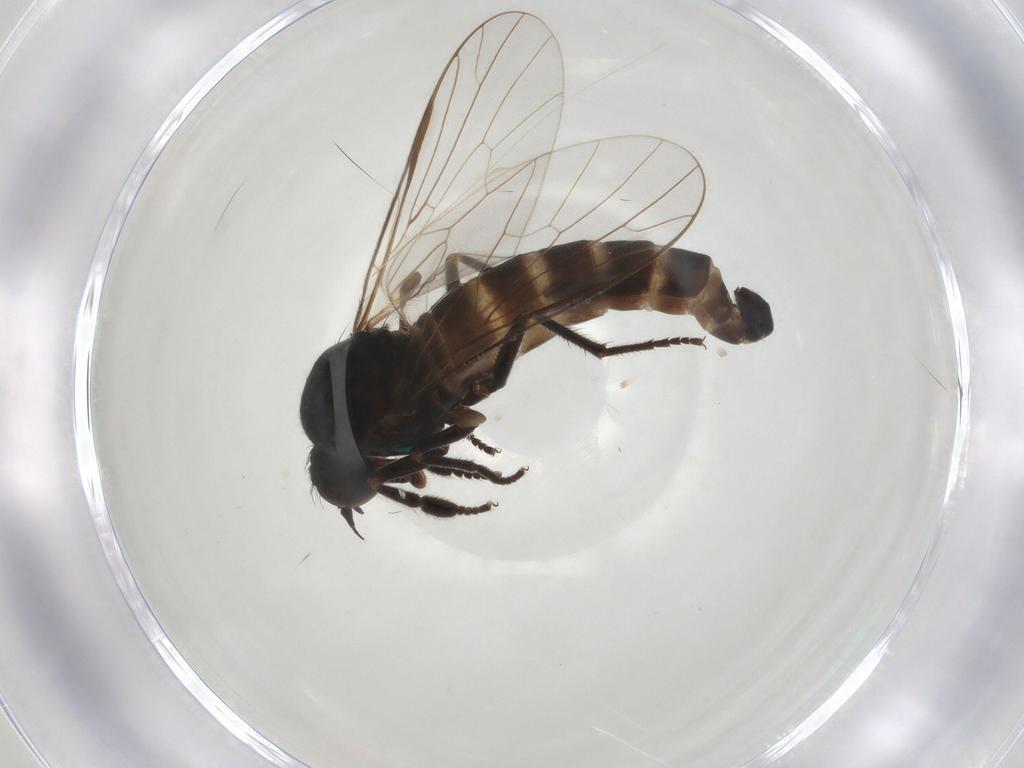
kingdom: Animalia
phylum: Arthropoda
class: Insecta
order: Diptera
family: Empididae
